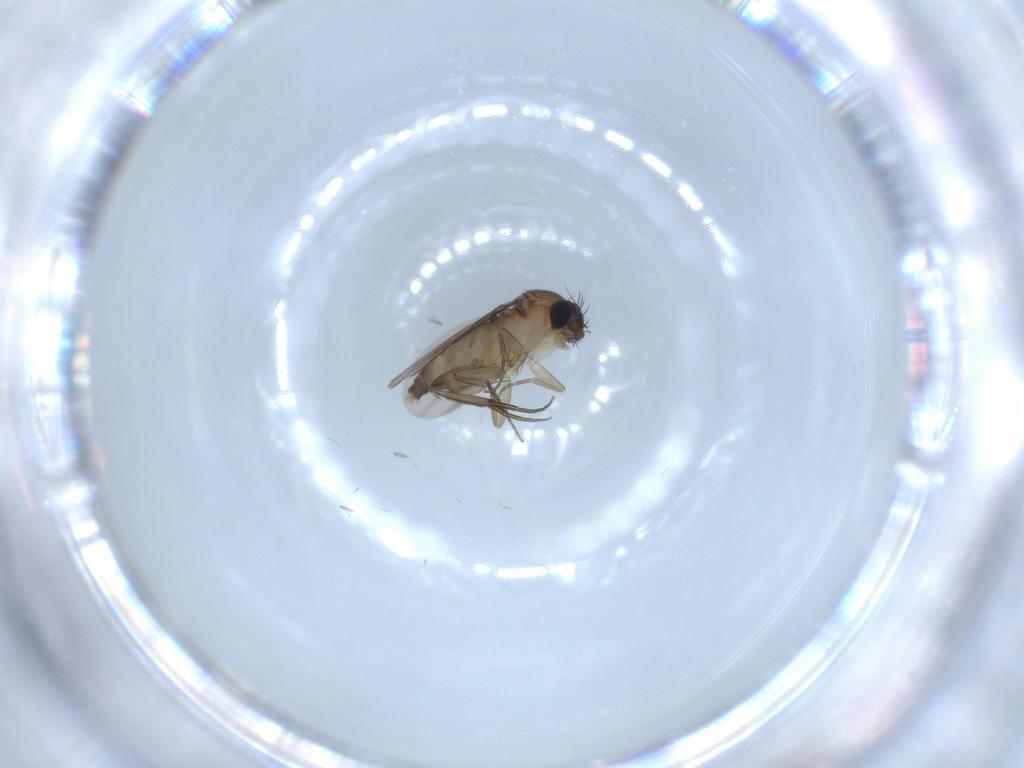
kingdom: Animalia
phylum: Arthropoda
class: Insecta
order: Diptera
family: Phoridae
